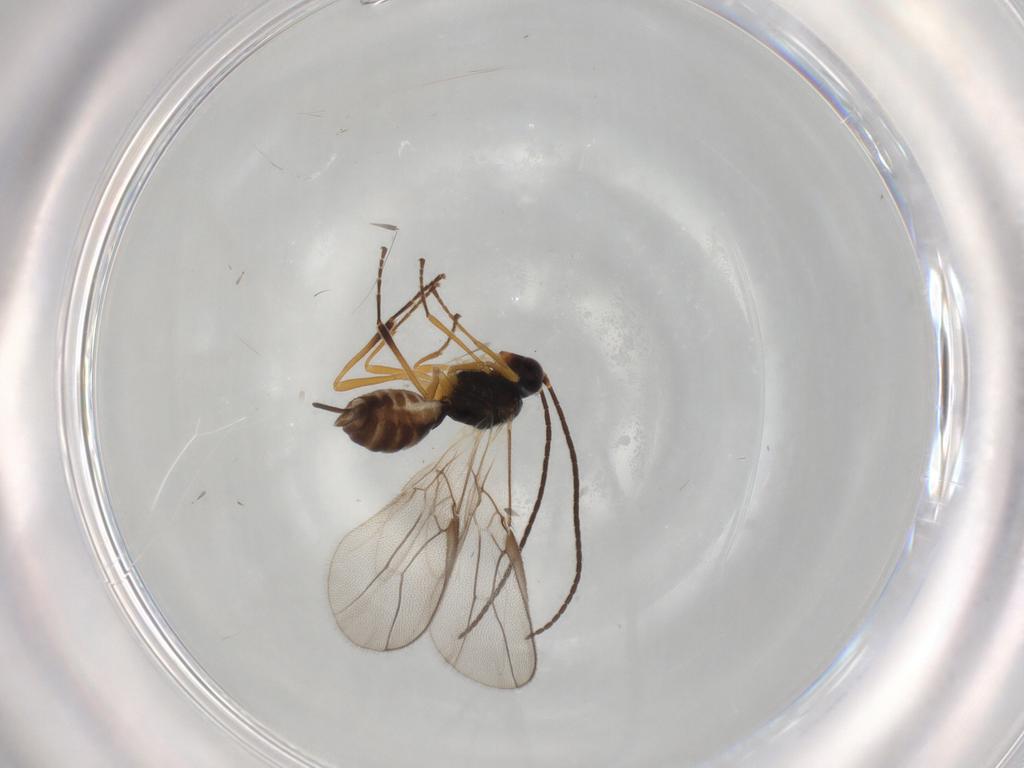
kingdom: Animalia
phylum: Arthropoda
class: Insecta
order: Hymenoptera
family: Braconidae
